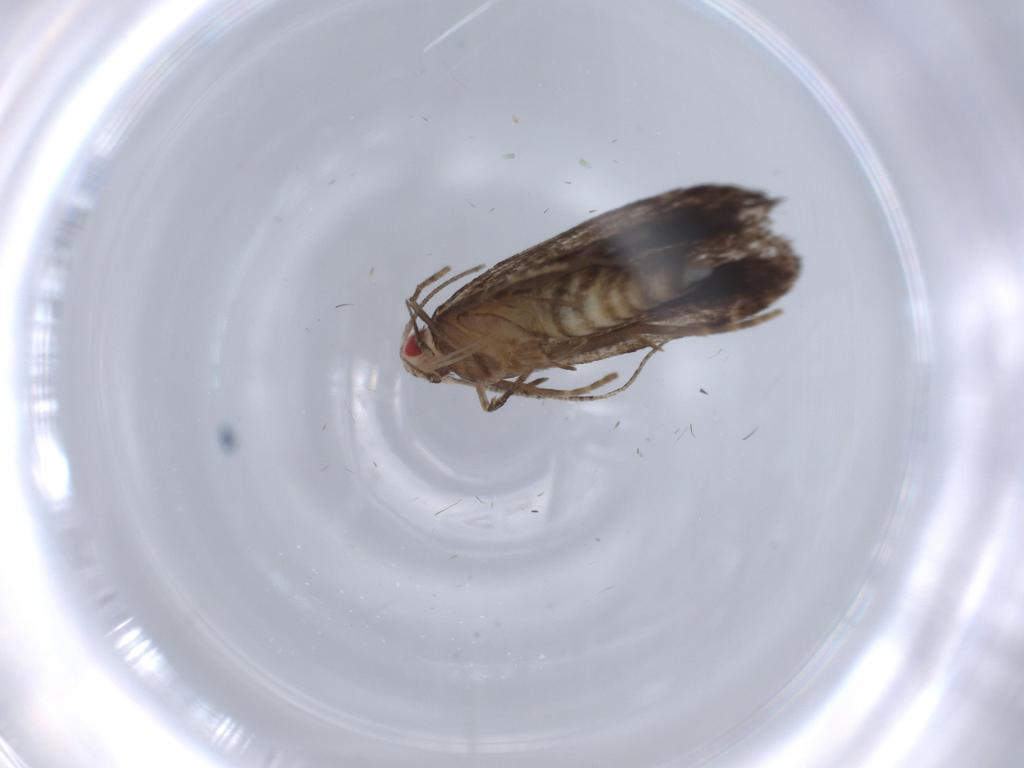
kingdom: Animalia
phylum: Arthropoda
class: Insecta
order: Lepidoptera
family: Gelechiidae
